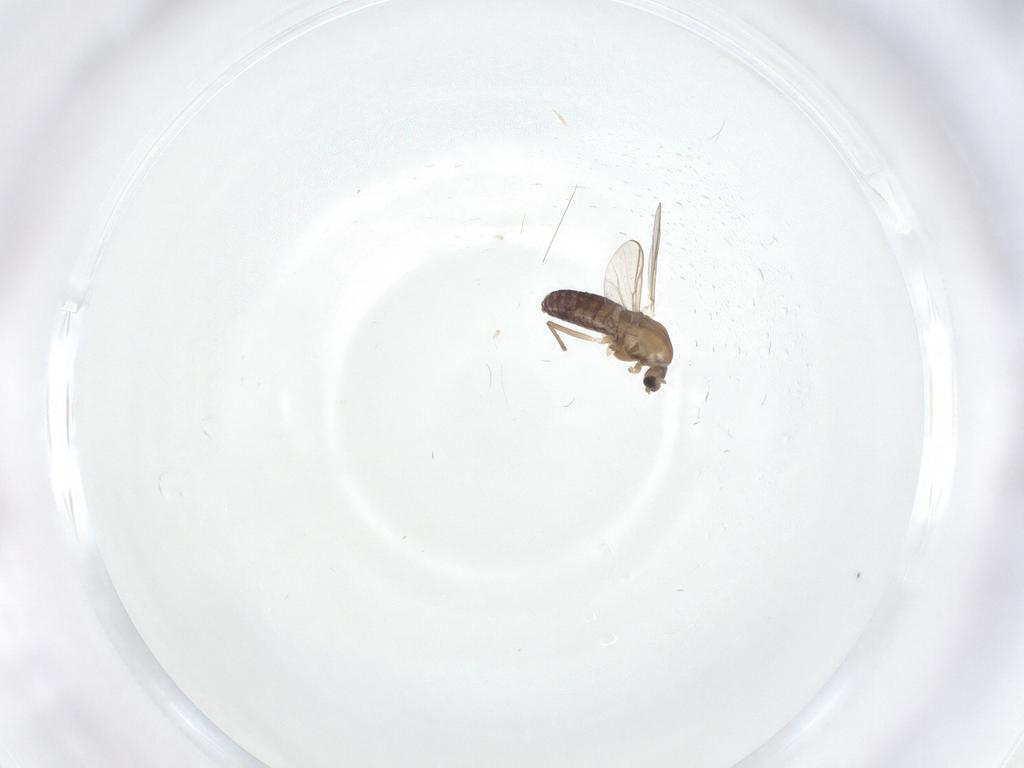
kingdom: Animalia
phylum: Arthropoda
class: Insecta
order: Diptera
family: Chironomidae
